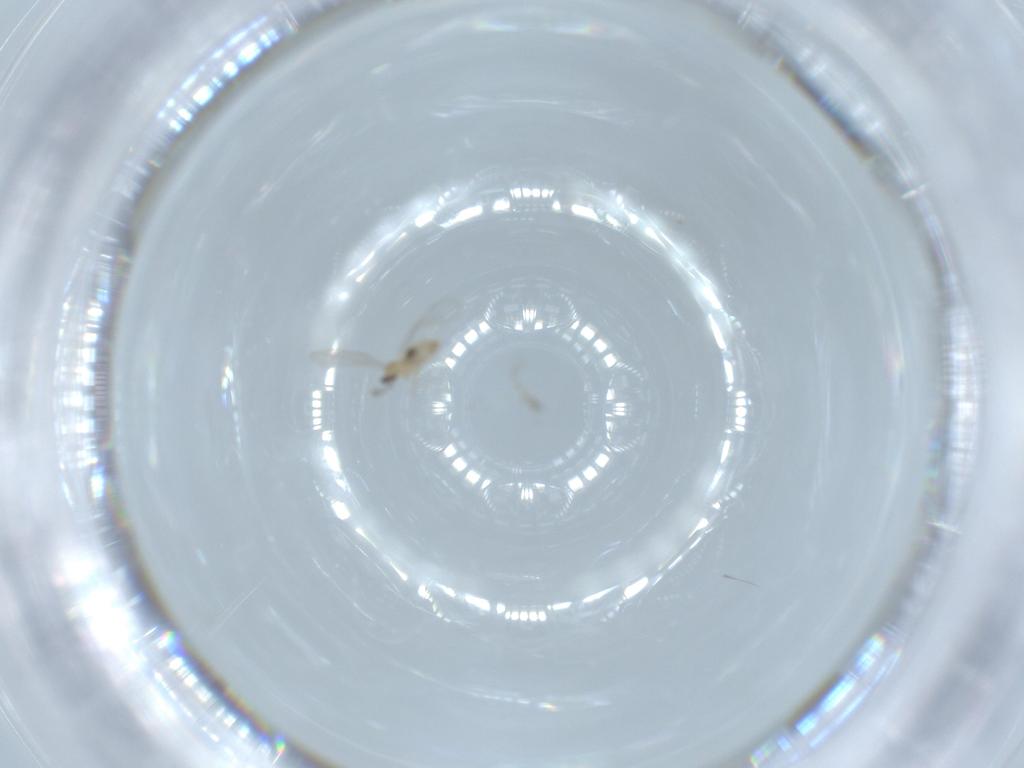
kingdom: Animalia
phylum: Arthropoda
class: Insecta
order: Diptera
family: Cecidomyiidae
